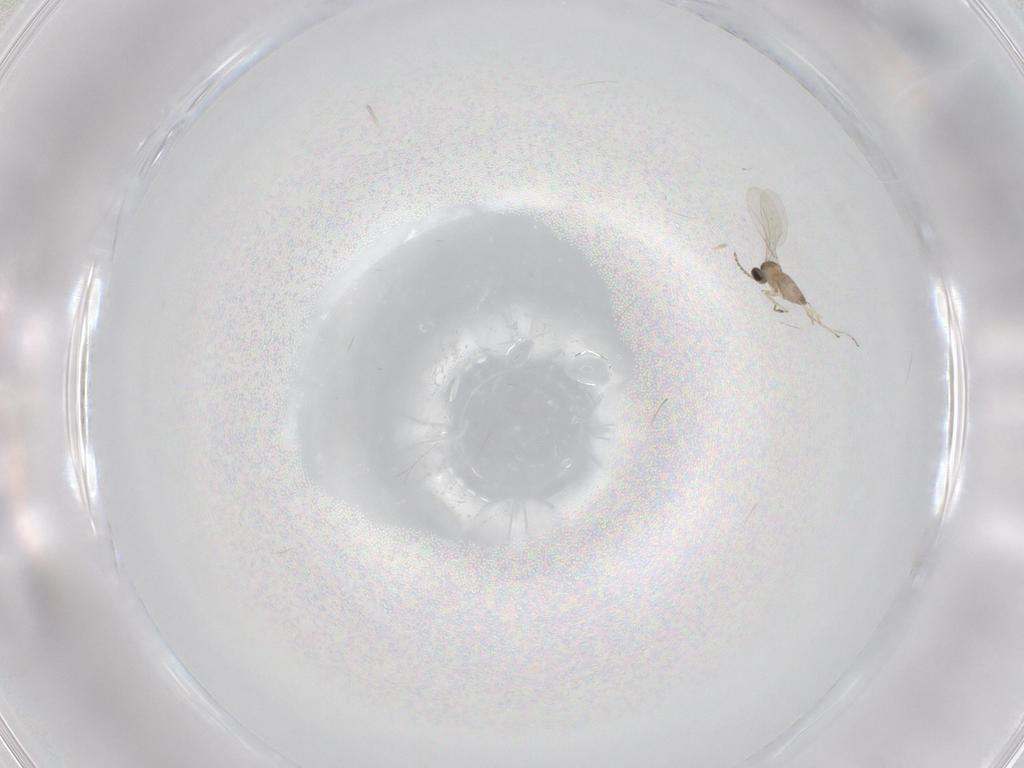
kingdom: Animalia
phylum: Arthropoda
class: Insecta
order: Diptera
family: Cecidomyiidae
